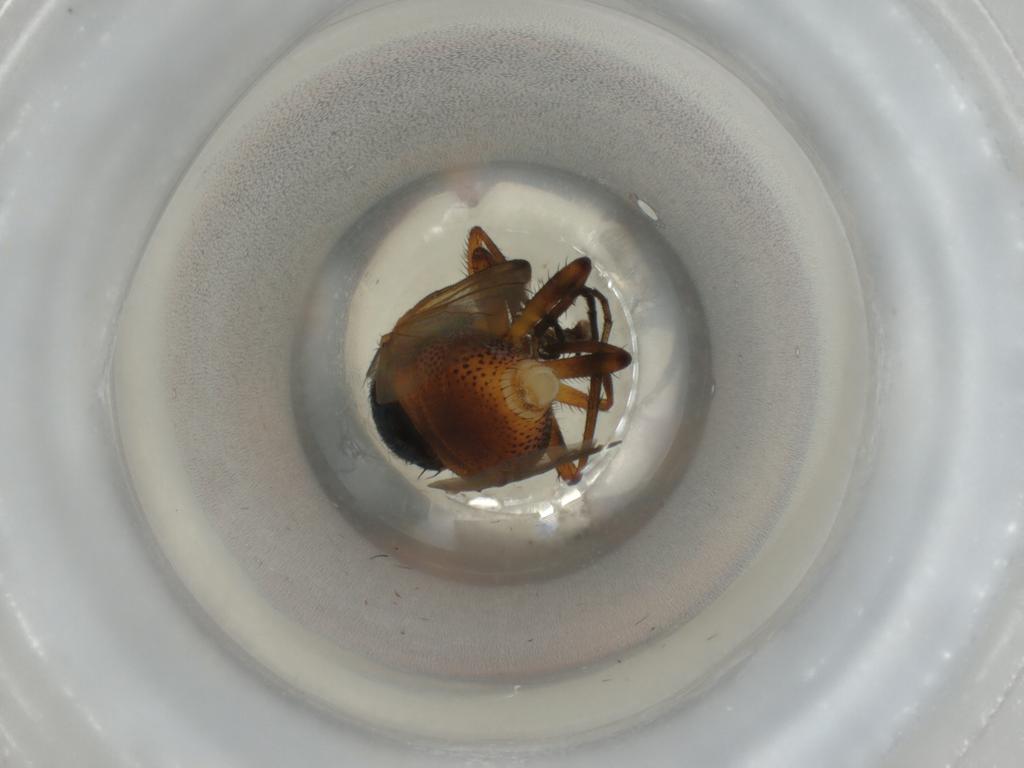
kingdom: Animalia
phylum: Arthropoda
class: Insecta
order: Diptera
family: Calliphoridae
